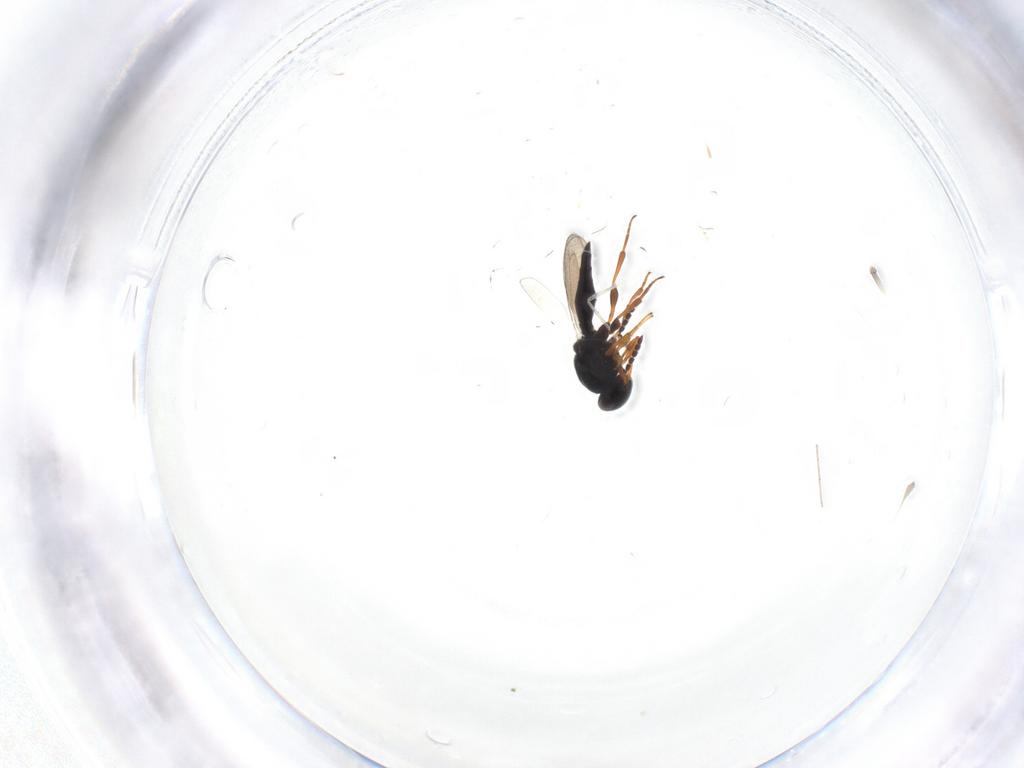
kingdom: Animalia
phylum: Arthropoda
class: Insecta
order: Hymenoptera
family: Platygastridae
